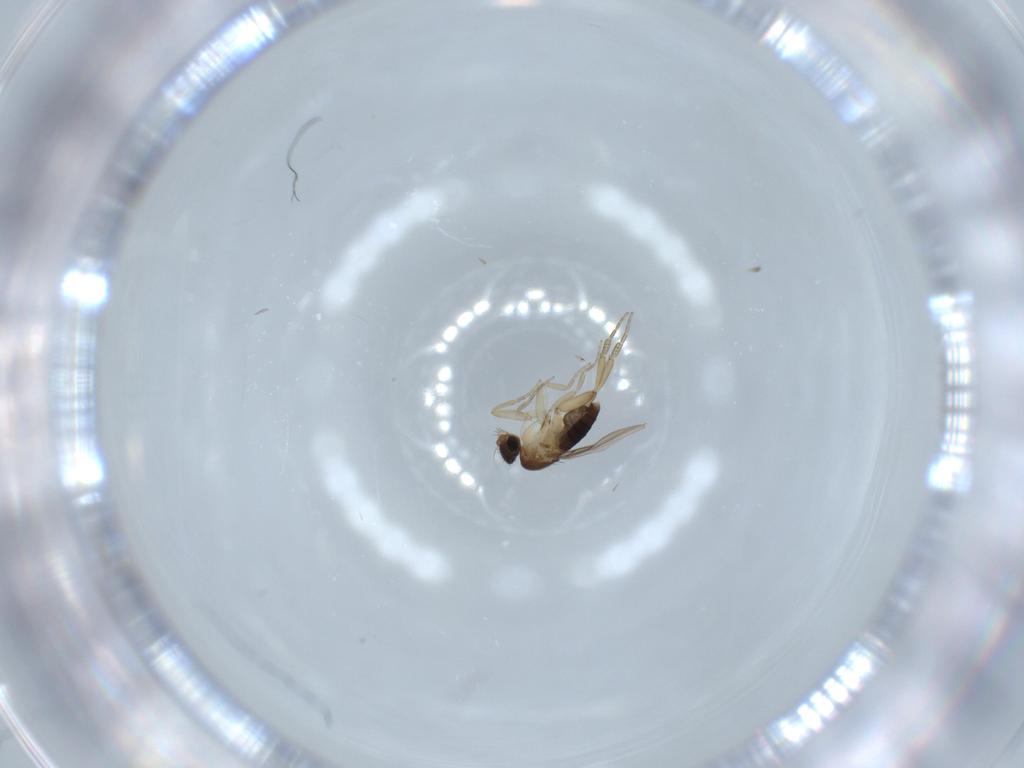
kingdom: Animalia
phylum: Arthropoda
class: Insecta
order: Diptera
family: Phoridae
